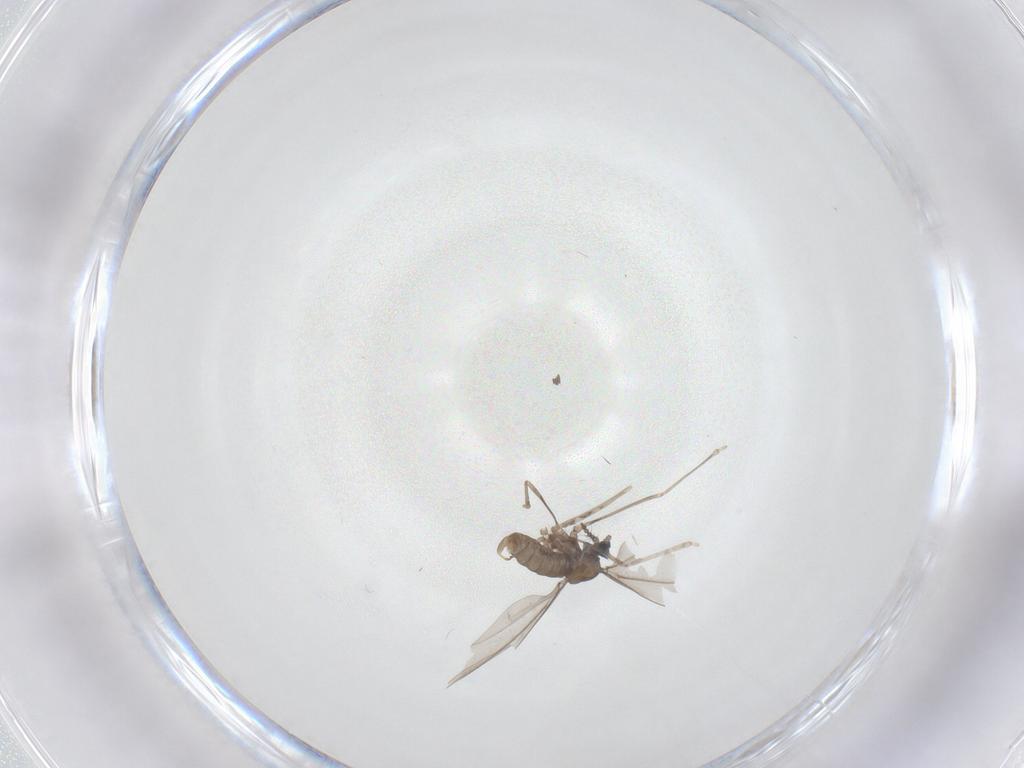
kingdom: Animalia
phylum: Arthropoda
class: Insecta
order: Diptera
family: Cecidomyiidae
